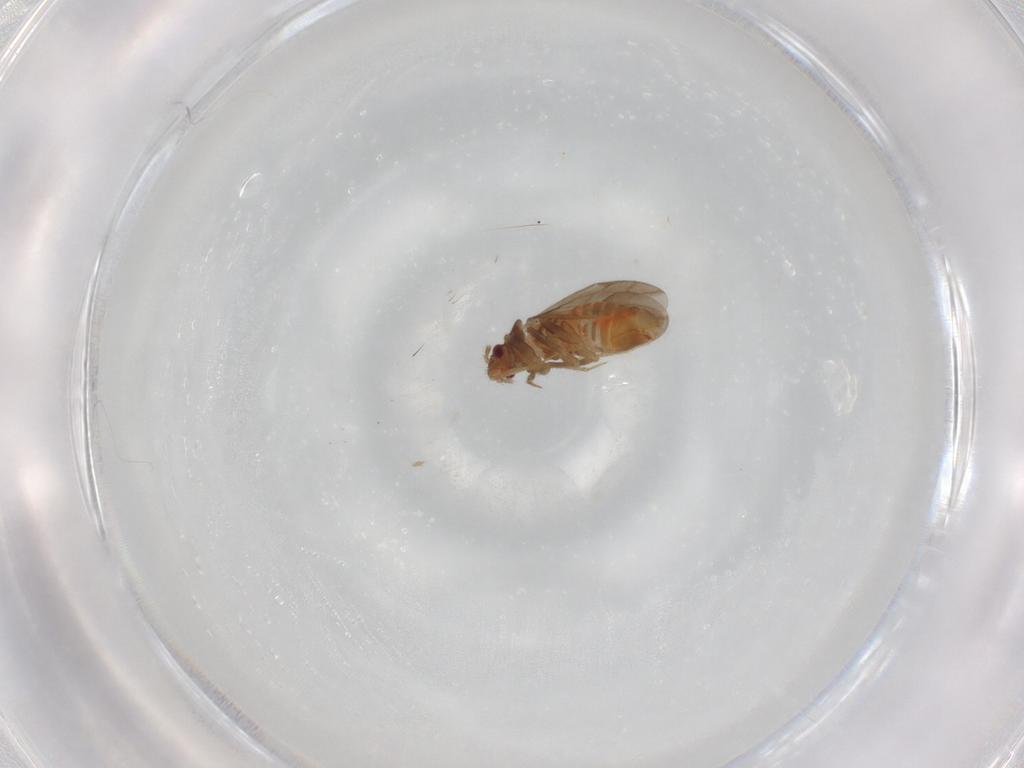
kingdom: Animalia
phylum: Arthropoda
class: Insecta
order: Hemiptera
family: Ceratocombidae
